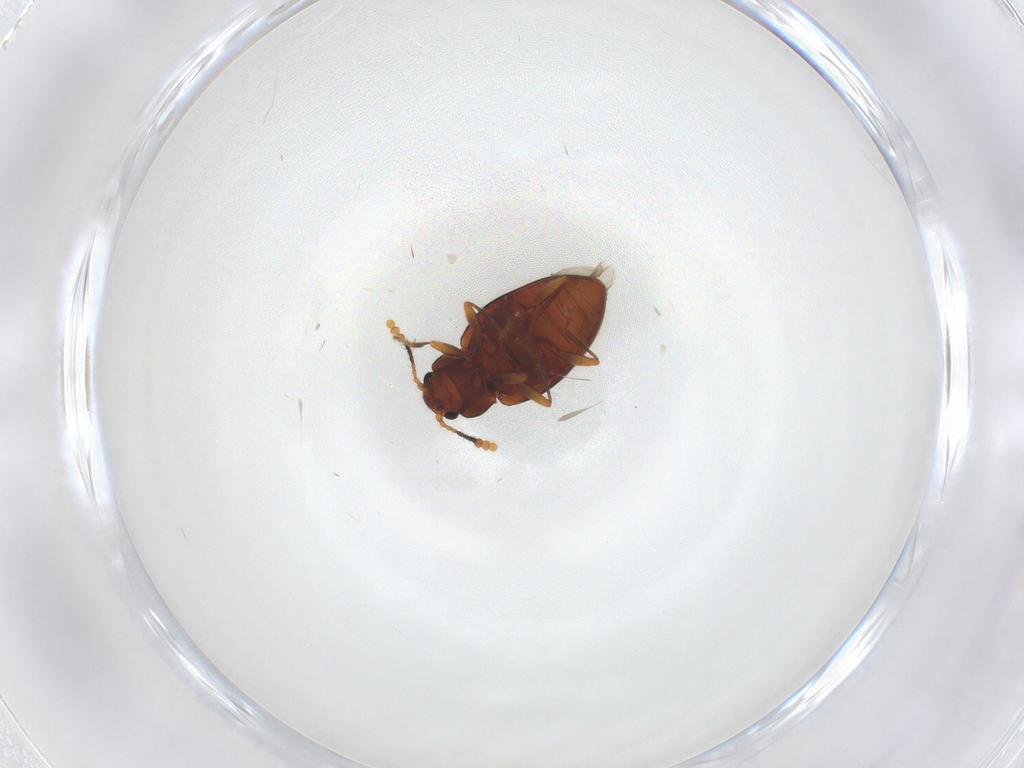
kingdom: Animalia
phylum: Arthropoda
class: Insecta
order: Coleoptera
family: Erotylidae
